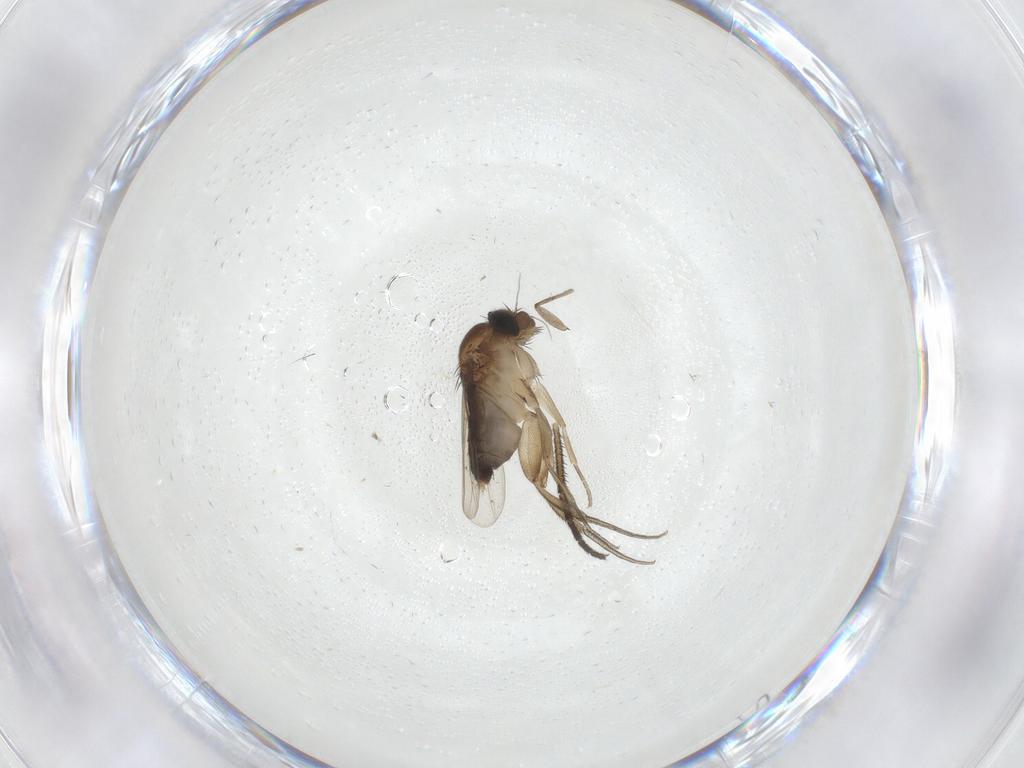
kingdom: Animalia
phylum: Arthropoda
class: Insecta
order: Diptera
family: Phoridae
